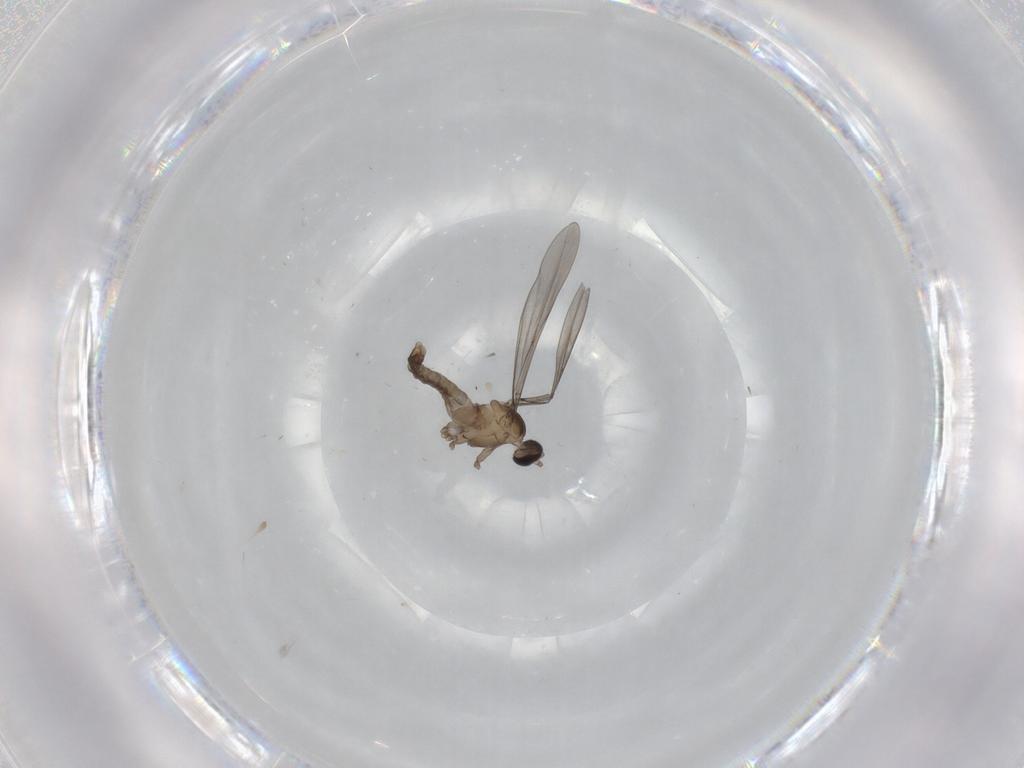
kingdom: Animalia
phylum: Arthropoda
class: Insecta
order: Diptera
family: Cecidomyiidae
